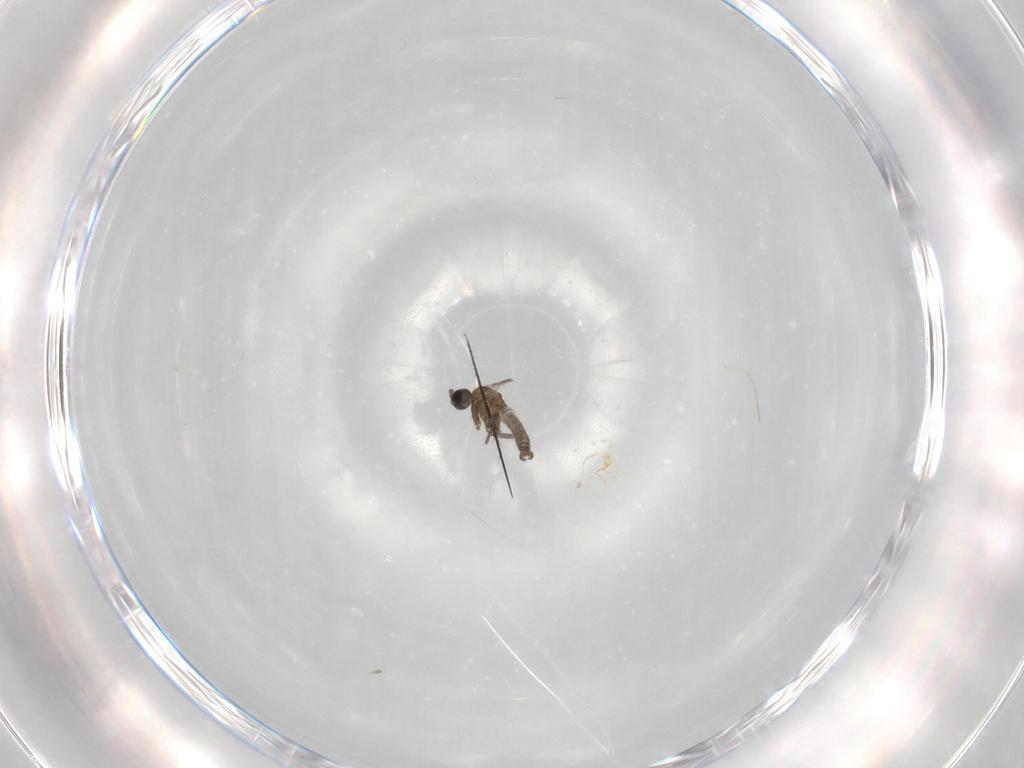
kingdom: Animalia
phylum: Arthropoda
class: Insecta
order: Diptera
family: Sciaridae
